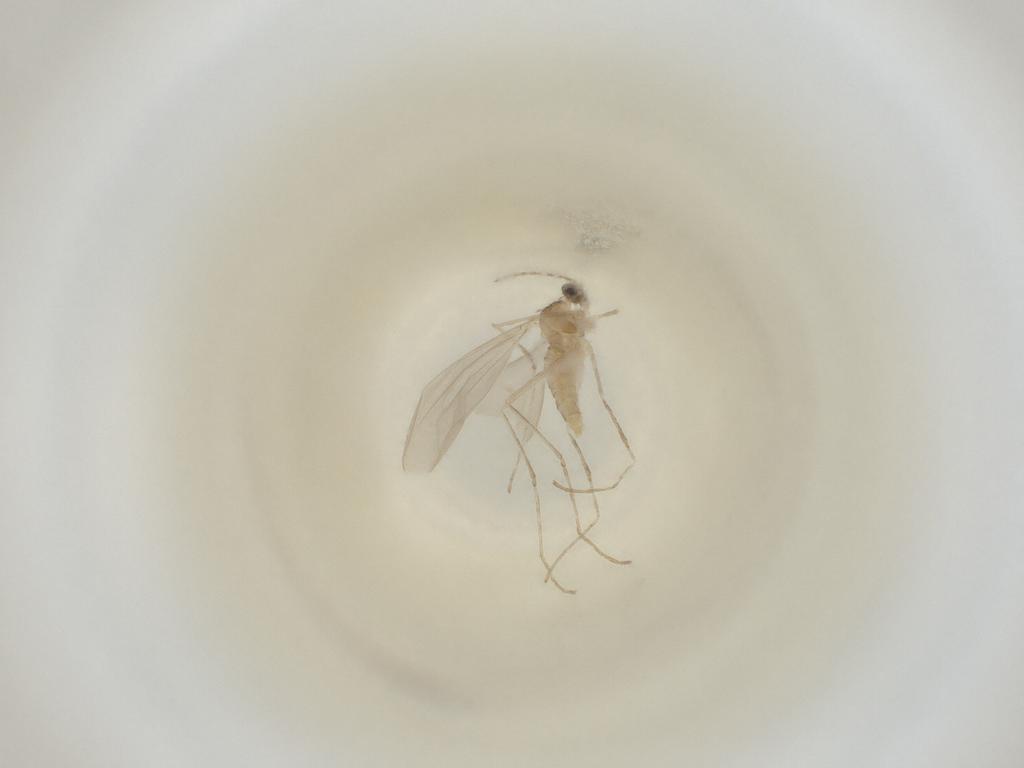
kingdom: Animalia
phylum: Arthropoda
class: Insecta
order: Diptera
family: Cecidomyiidae
